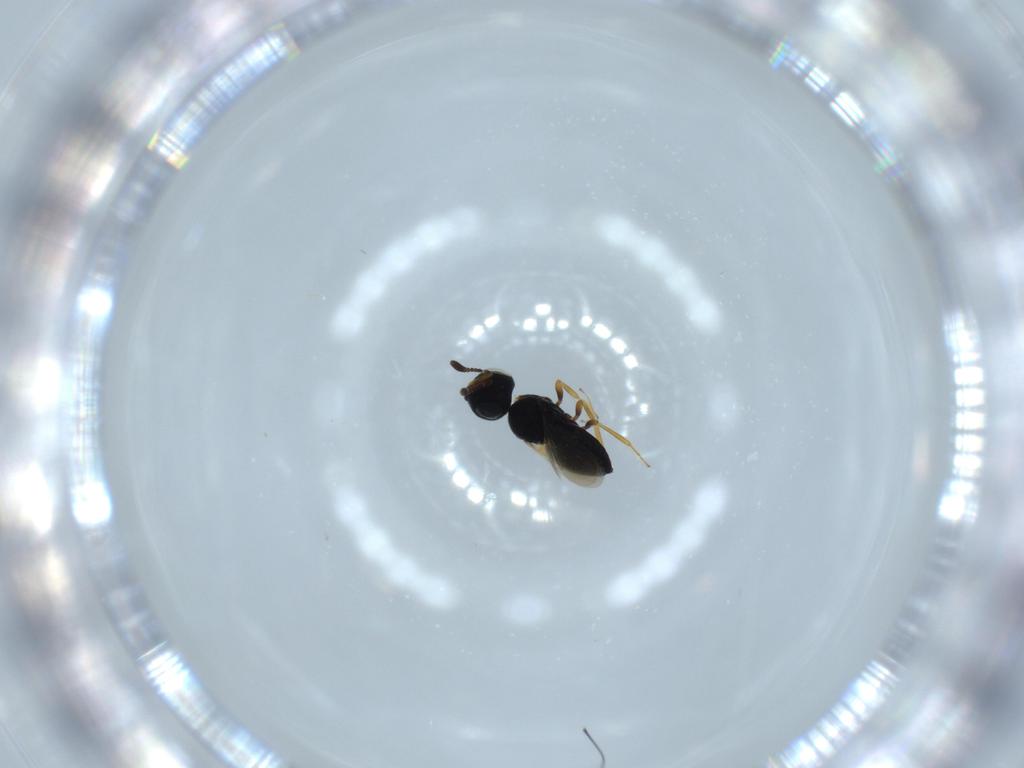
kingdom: Animalia
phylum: Arthropoda
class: Insecta
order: Hymenoptera
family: Scelionidae
